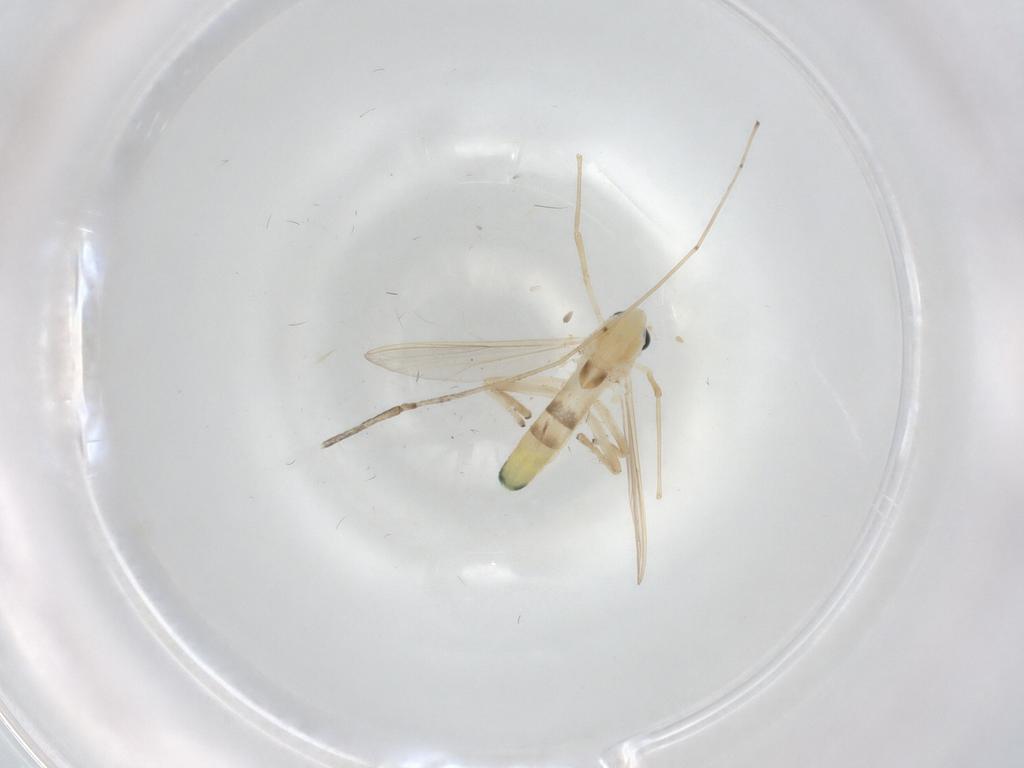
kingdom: Animalia
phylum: Arthropoda
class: Insecta
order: Diptera
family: Chironomidae
